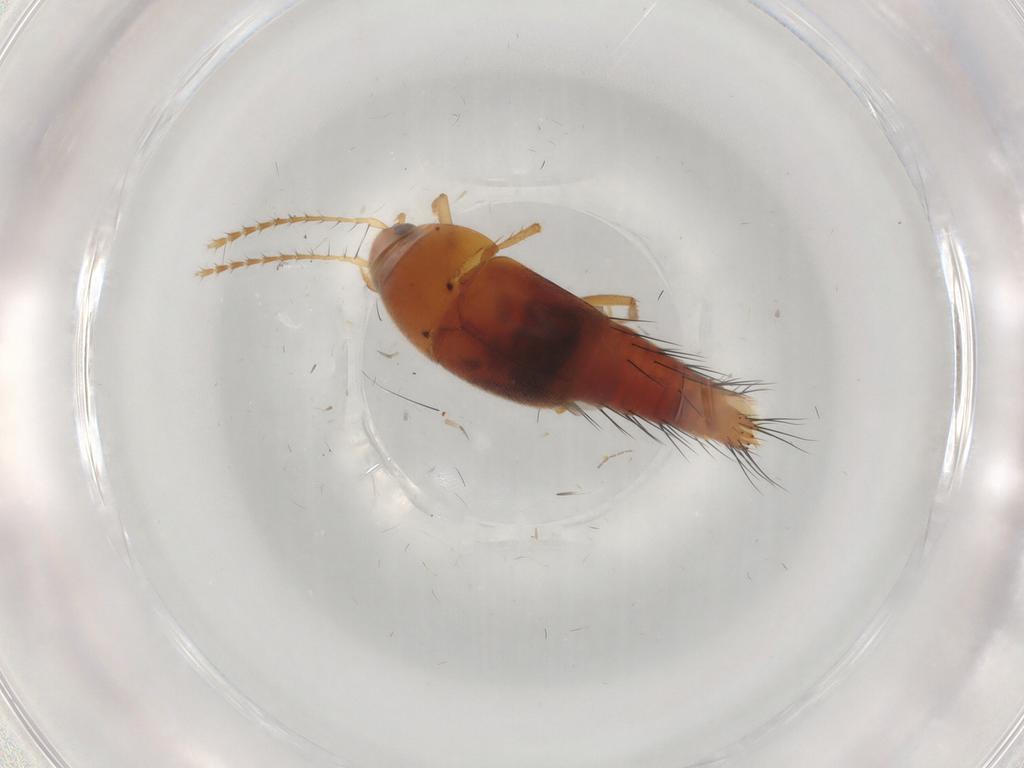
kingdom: Animalia
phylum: Arthropoda
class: Insecta
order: Coleoptera
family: Staphylinidae
